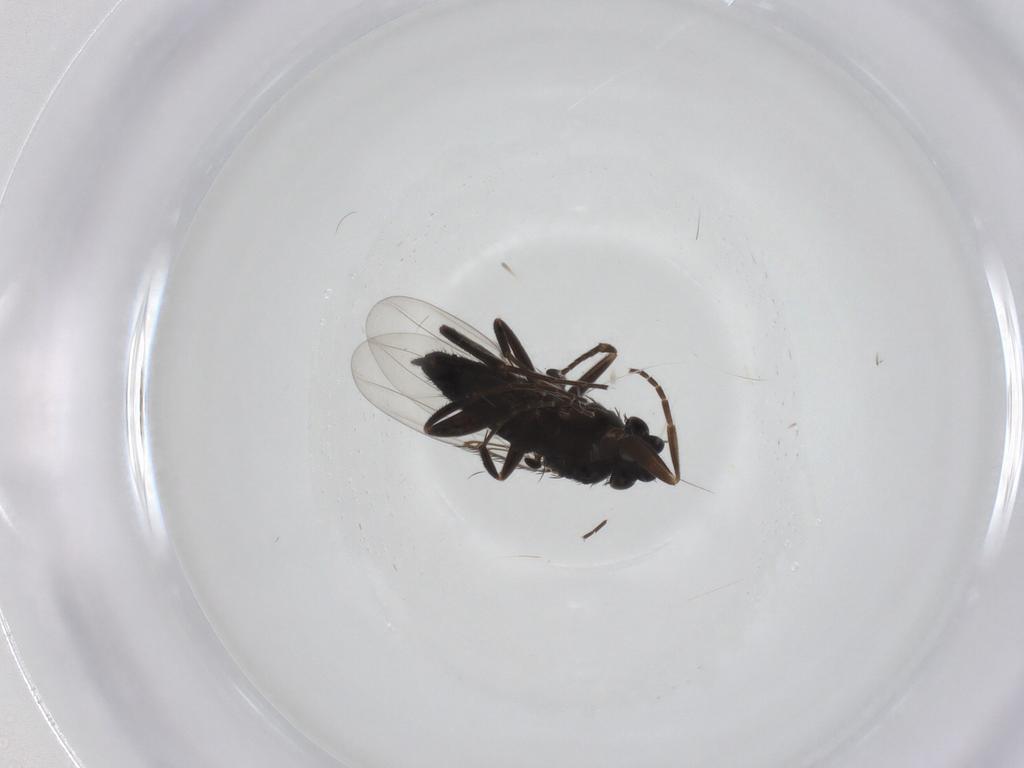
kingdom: Animalia
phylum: Arthropoda
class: Insecta
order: Diptera
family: Phoridae
